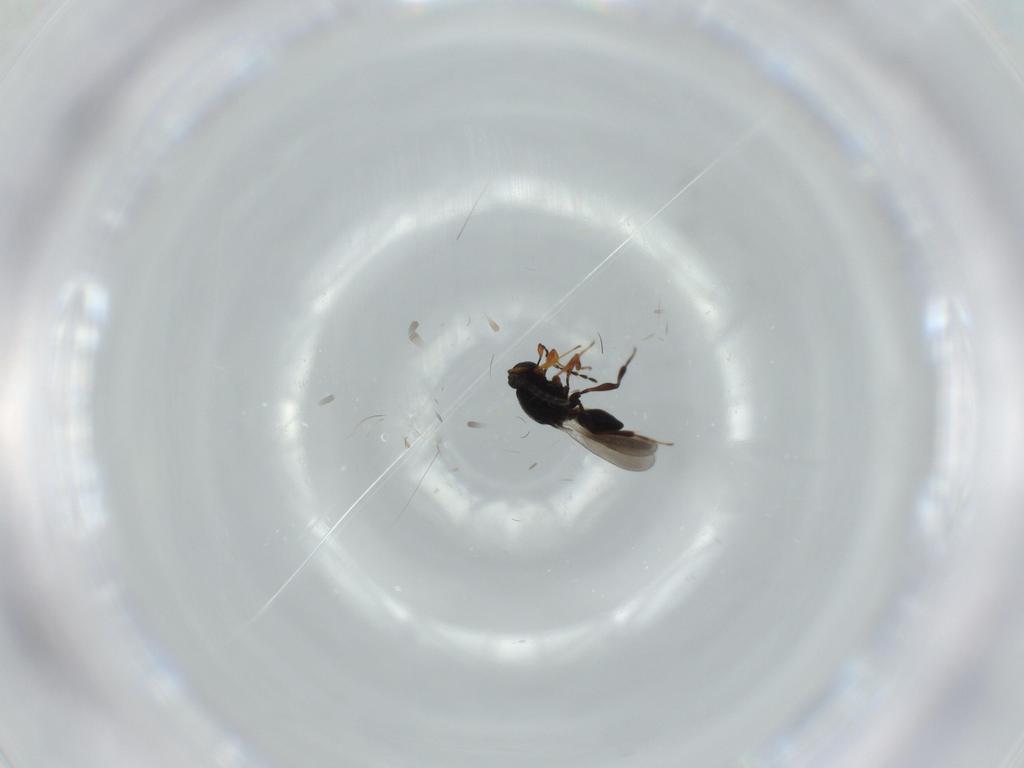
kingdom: Animalia
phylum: Arthropoda
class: Insecta
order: Hymenoptera
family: Platygastridae
